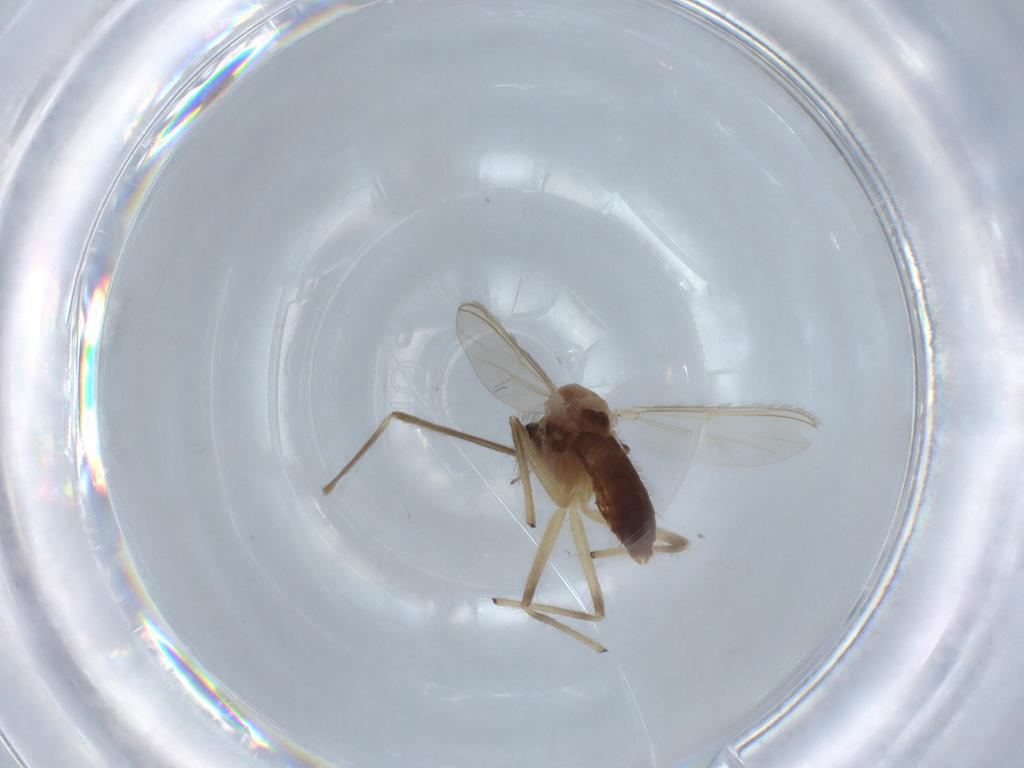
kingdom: Animalia
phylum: Arthropoda
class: Insecta
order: Diptera
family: Chironomidae
